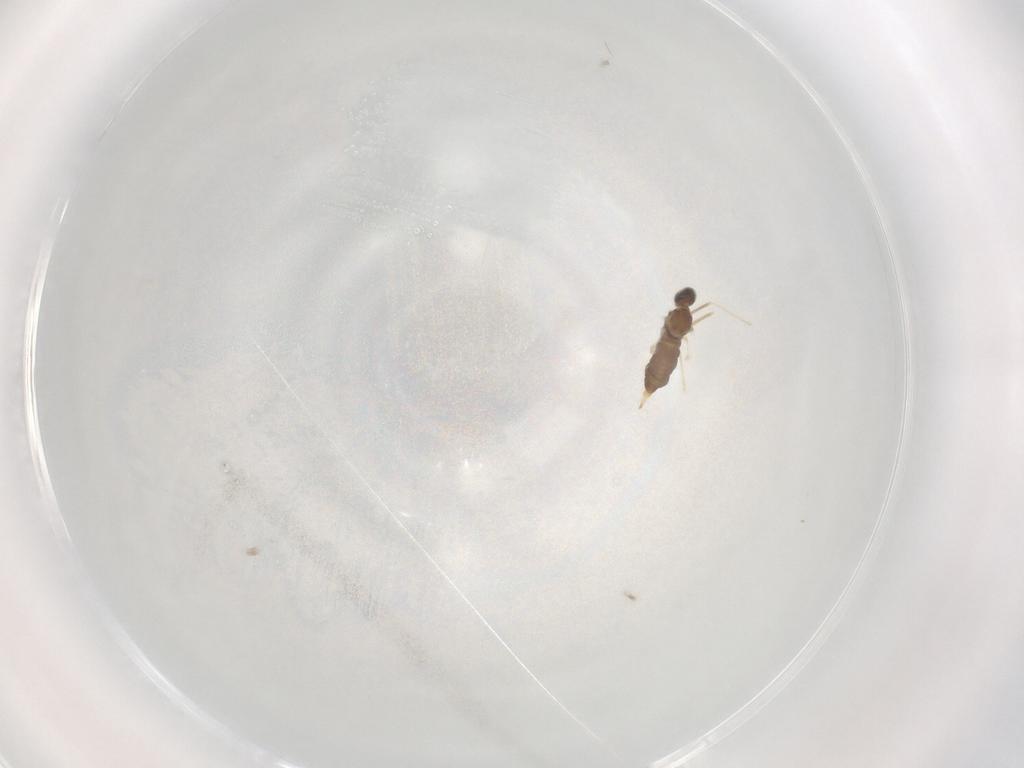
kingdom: Animalia
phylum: Arthropoda
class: Insecta
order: Diptera
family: Cecidomyiidae
